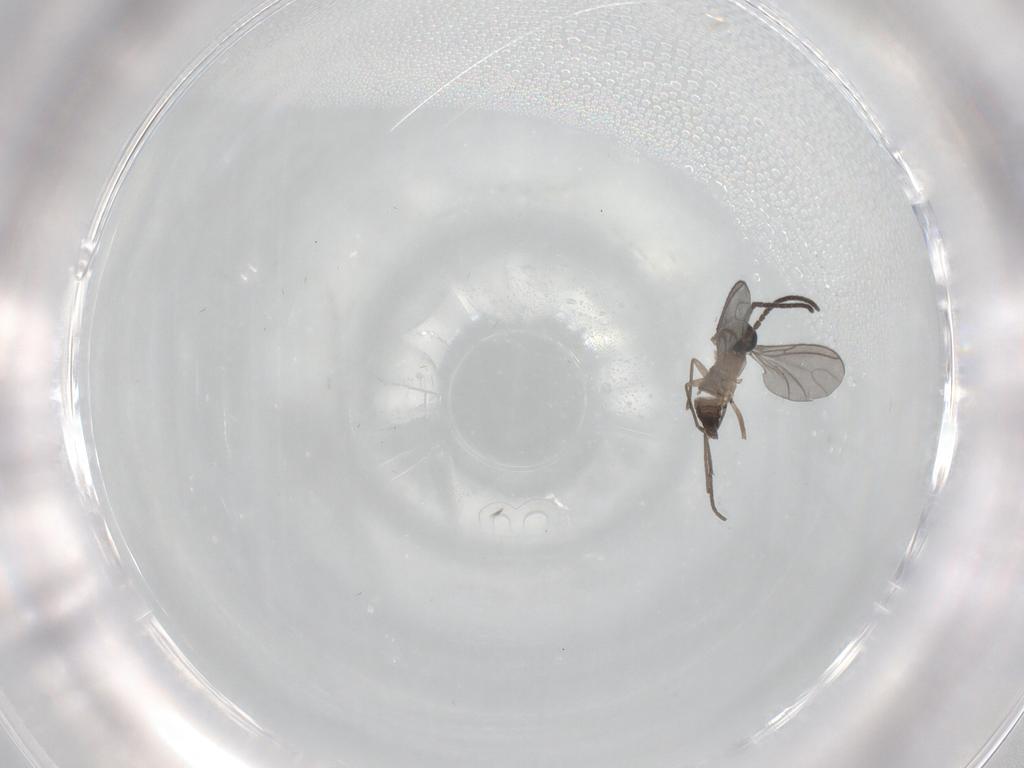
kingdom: Animalia
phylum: Arthropoda
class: Insecta
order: Diptera
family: Sciaridae
